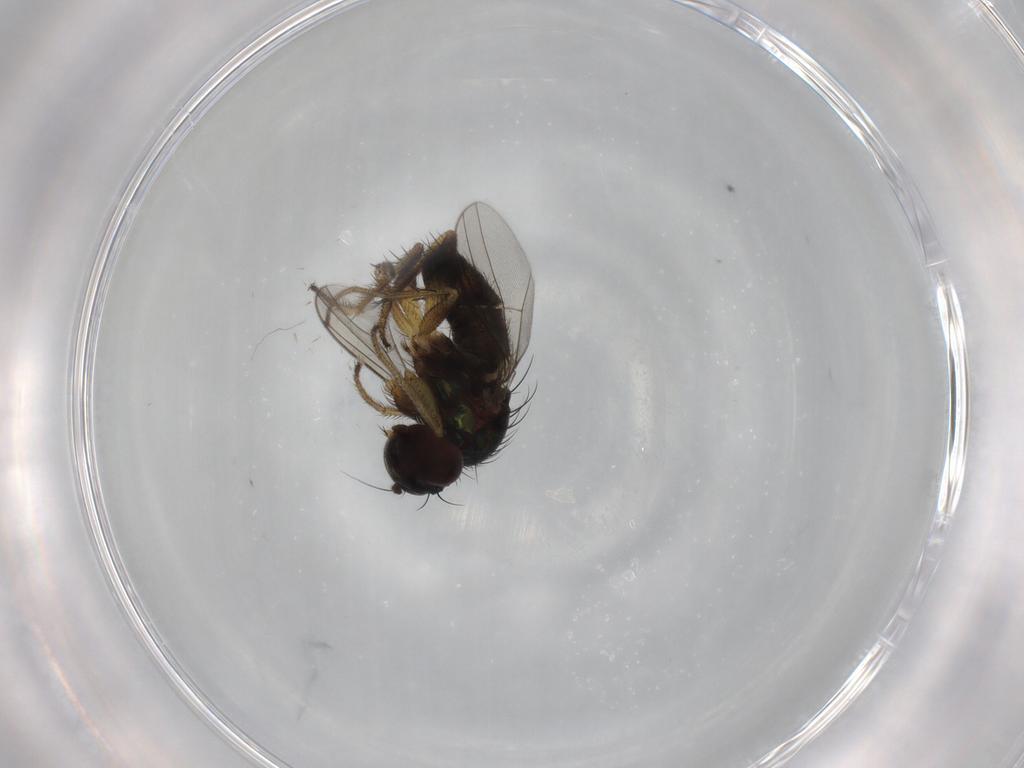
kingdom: Animalia
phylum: Arthropoda
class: Insecta
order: Diptera
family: Dolichopodidae
